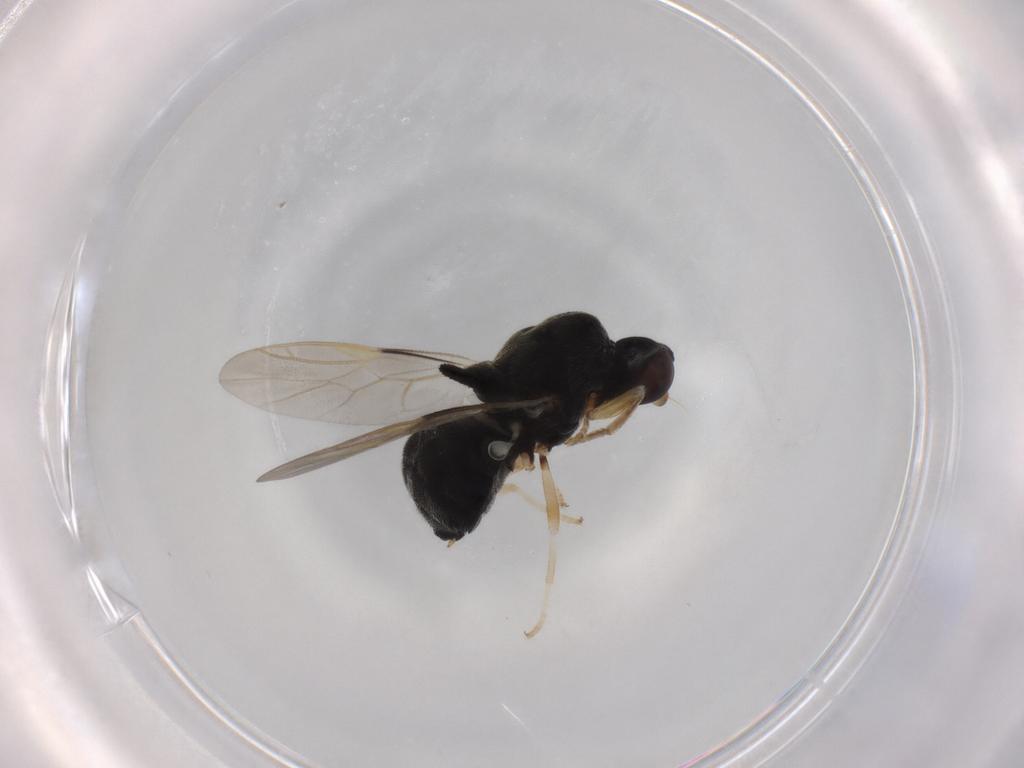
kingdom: Animalia
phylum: Arthropoda
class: Insecta
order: Diptera
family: Stratiomyidae
